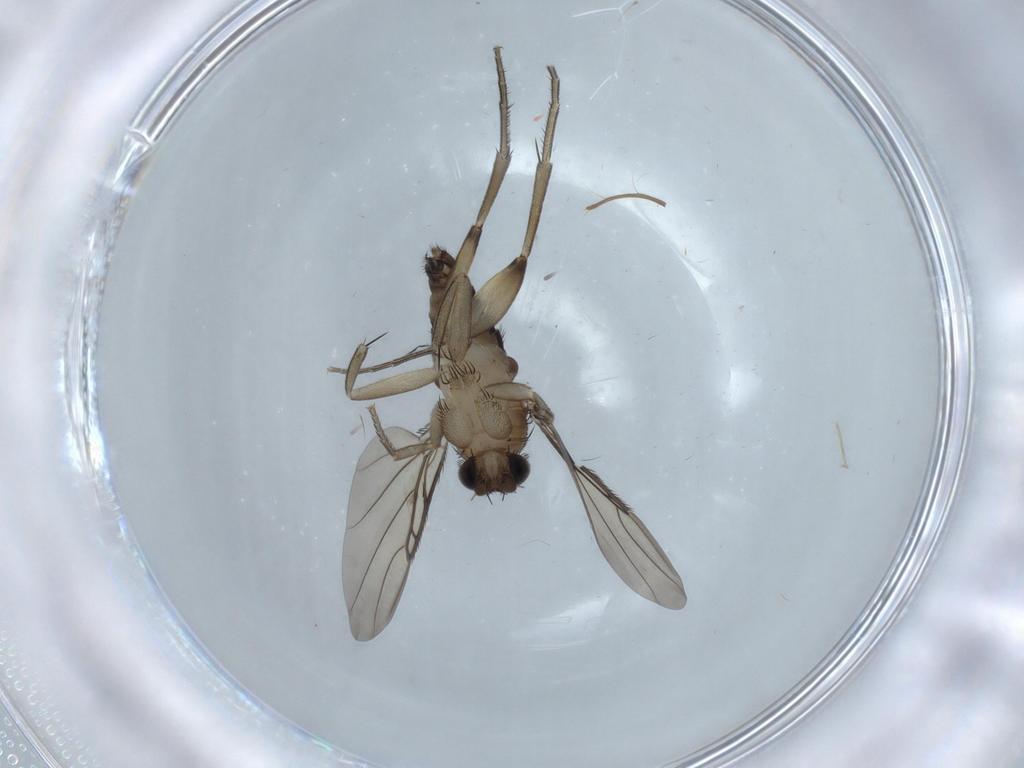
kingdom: Animalia
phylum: Arthropoda
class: Insecta
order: Diptera
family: Phoridae
